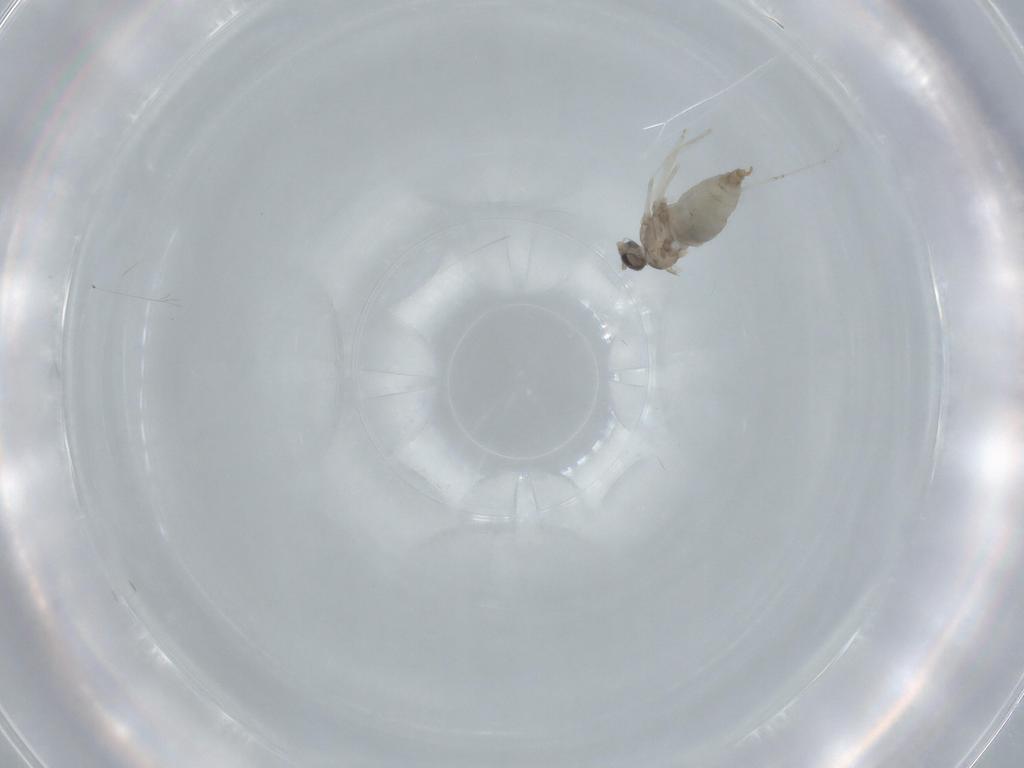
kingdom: Animalia
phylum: Arthropoda
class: Insecta
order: Diptera
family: Cecidomyiidae
